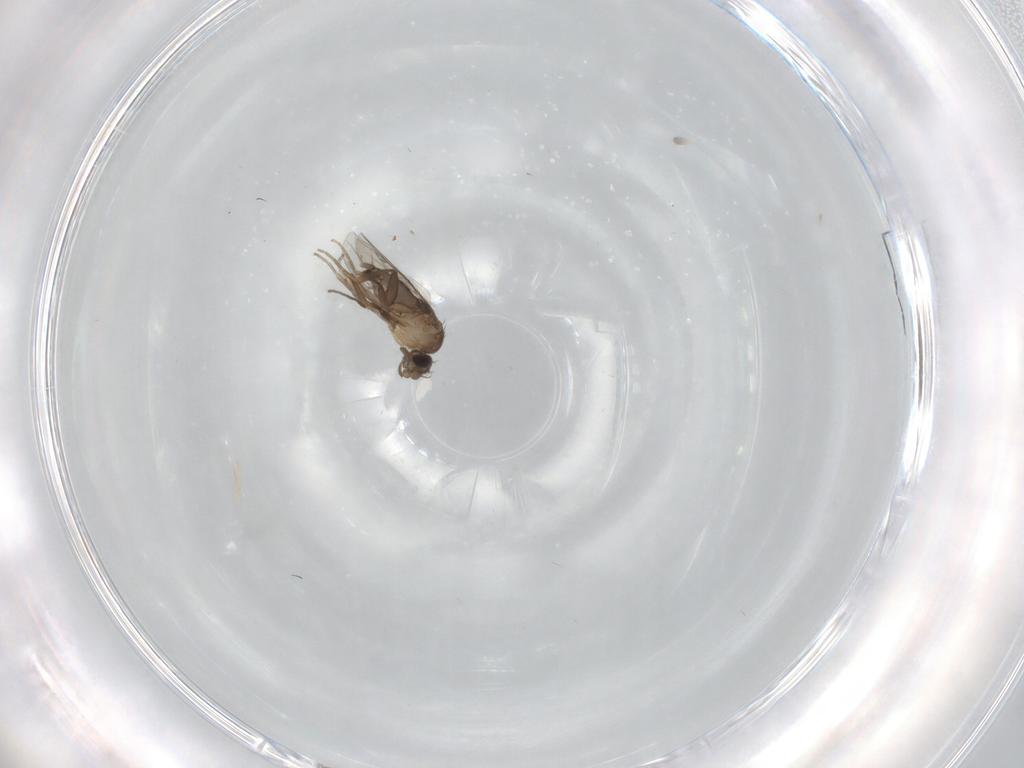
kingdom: Animalia
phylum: Arthropoda
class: Insecta
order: Diptera
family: Cecidomyiidae
